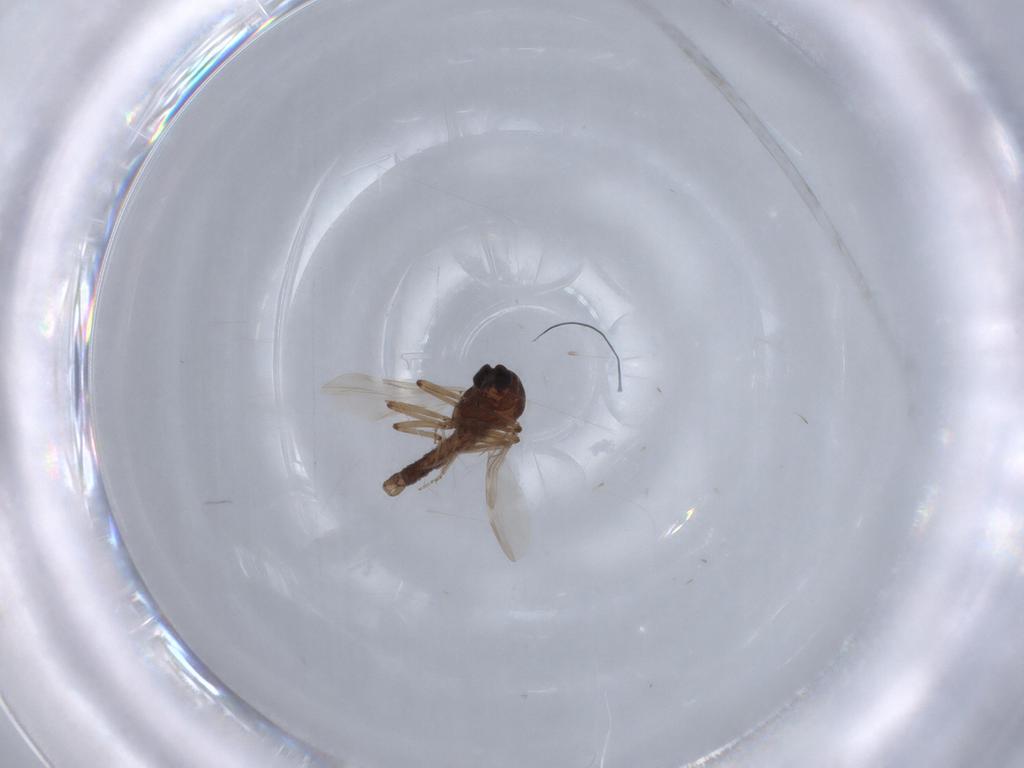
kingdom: Animalia
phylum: Arthropoda
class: Insecta
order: Diptera
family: Ceratopogonidae
